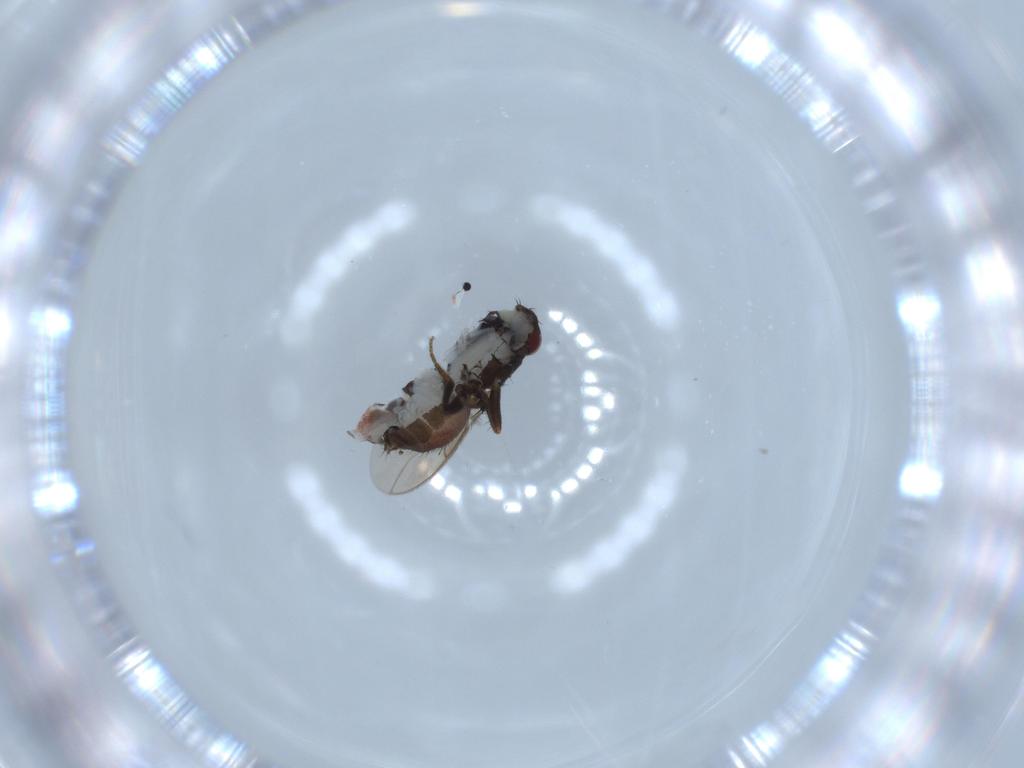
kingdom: Animalia
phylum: Arthropoda
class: Insecta
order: Diptera
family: Sphaeroceridae
